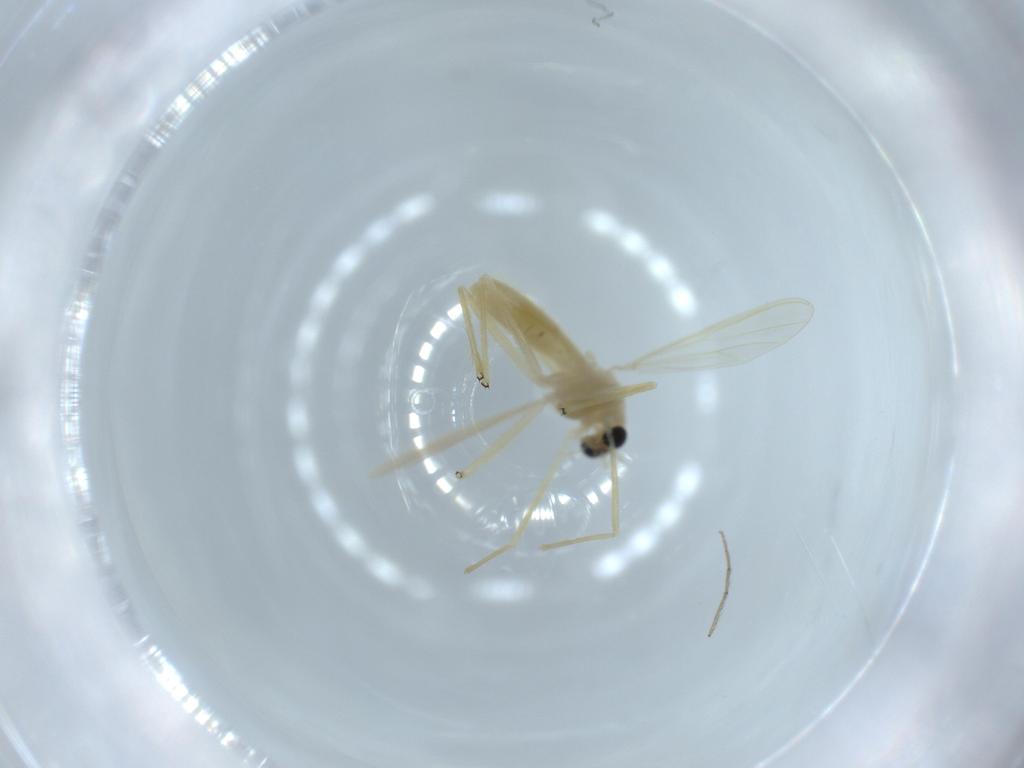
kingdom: Animalia
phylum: Arthropoda
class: Insecta
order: Diptera
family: Chironomidae
